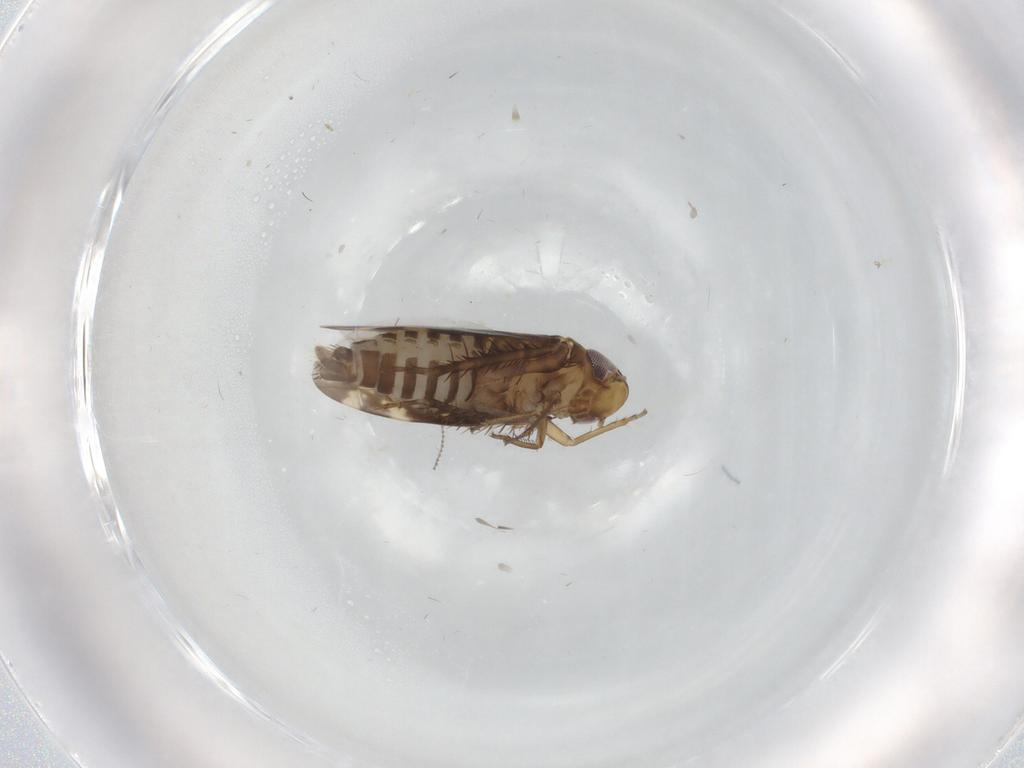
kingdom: Animalia
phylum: Arthropoda
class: Insecta
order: Hemiptera
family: Cicadellidae
